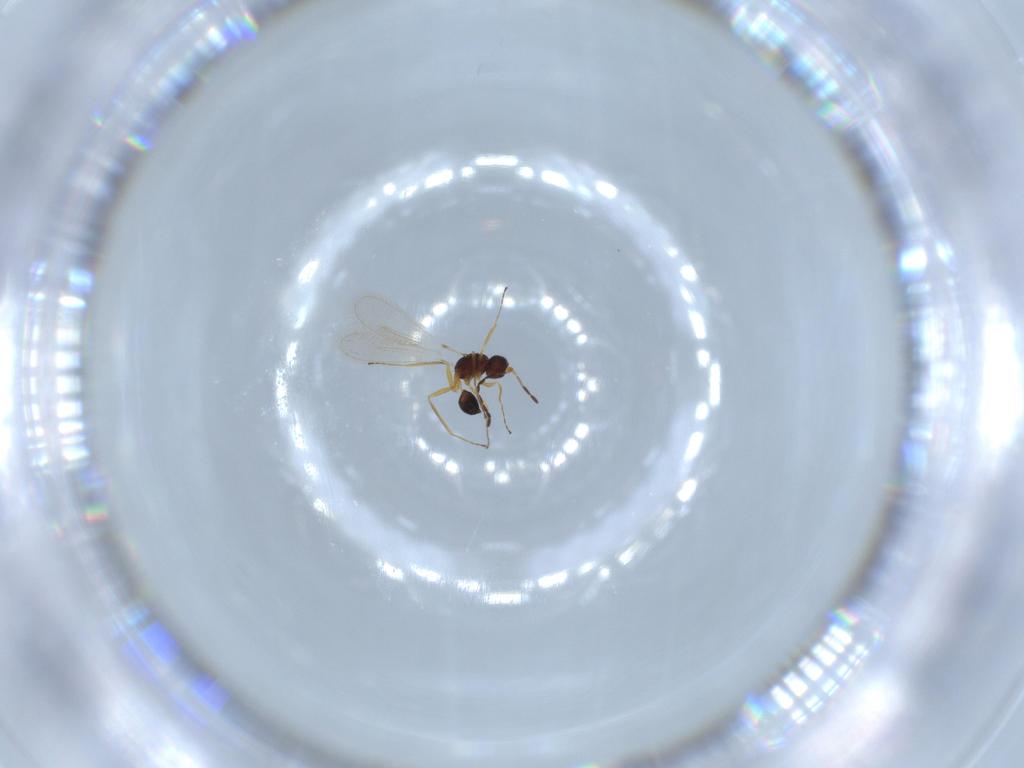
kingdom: Animalia
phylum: Arthropoda
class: Insecta
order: Hymenoptera
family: Mymaridae
